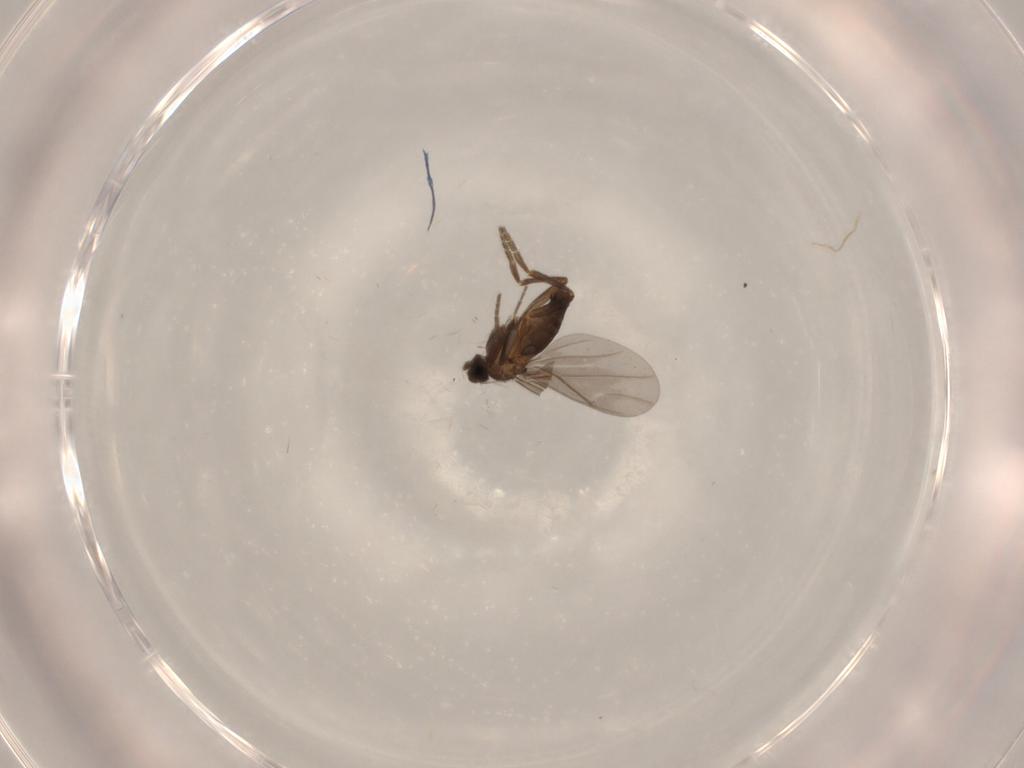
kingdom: Animalia
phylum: Arthropoda
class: Insecta
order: Diptera
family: Phoridae
